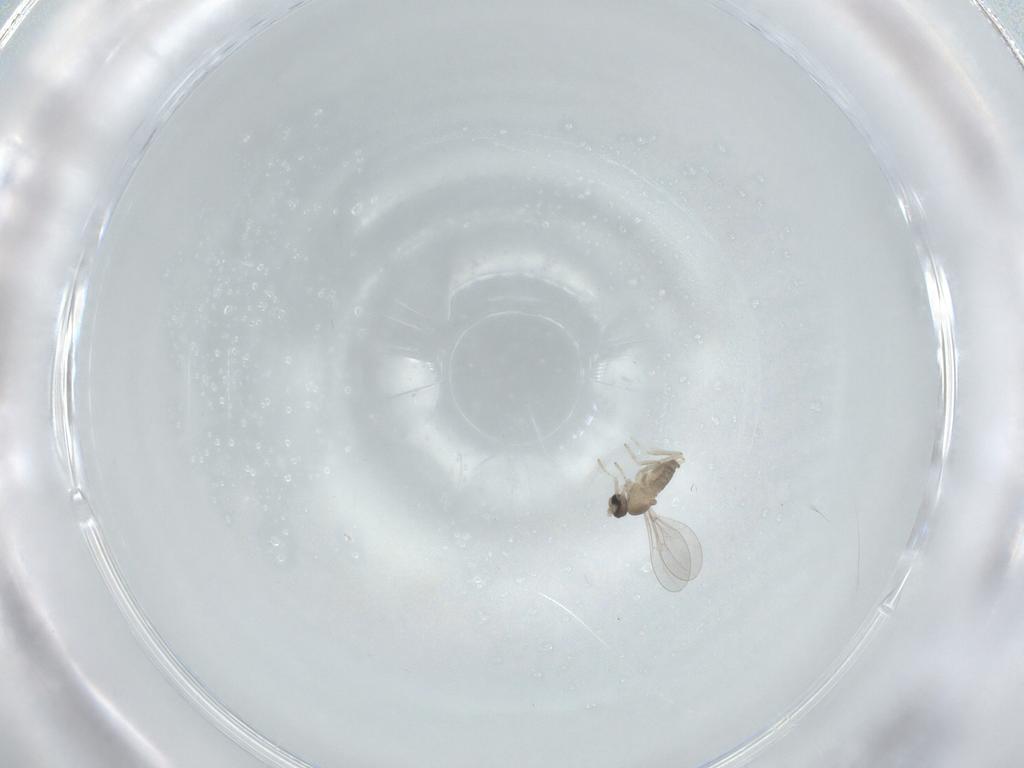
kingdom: Animalia
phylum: Arthropoda
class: Insecta
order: Diptera
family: Cecidomyiidae
